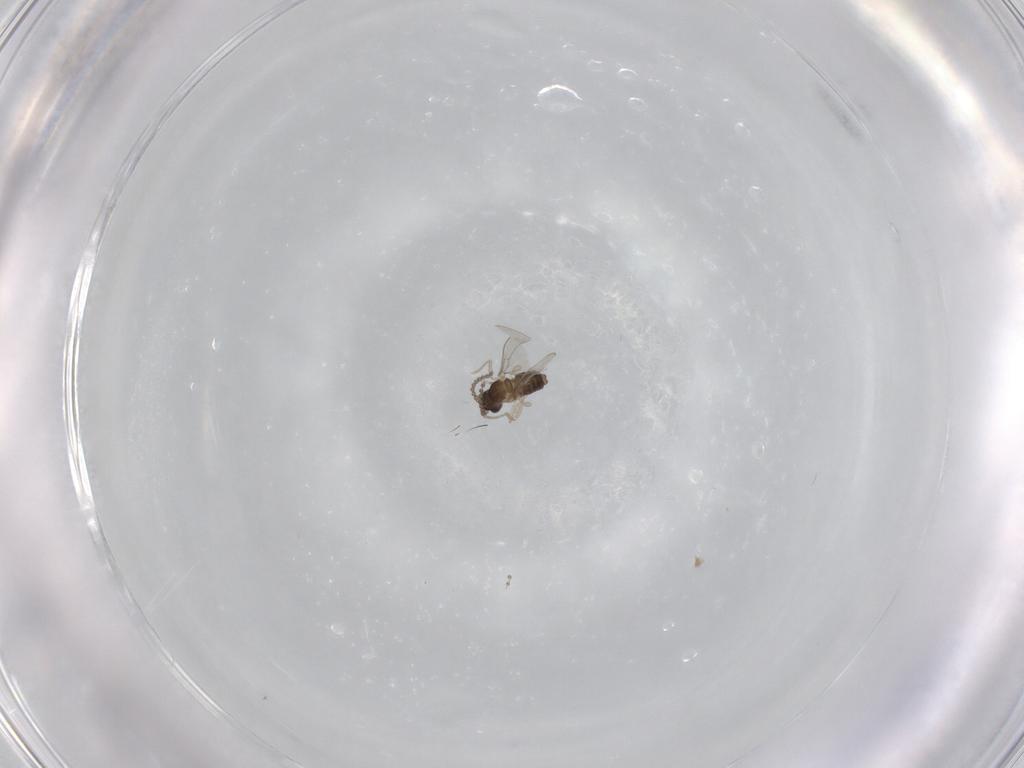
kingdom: Animalia
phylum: Arthropoda
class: Insecta
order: Diptera
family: Cecidomyiidae
